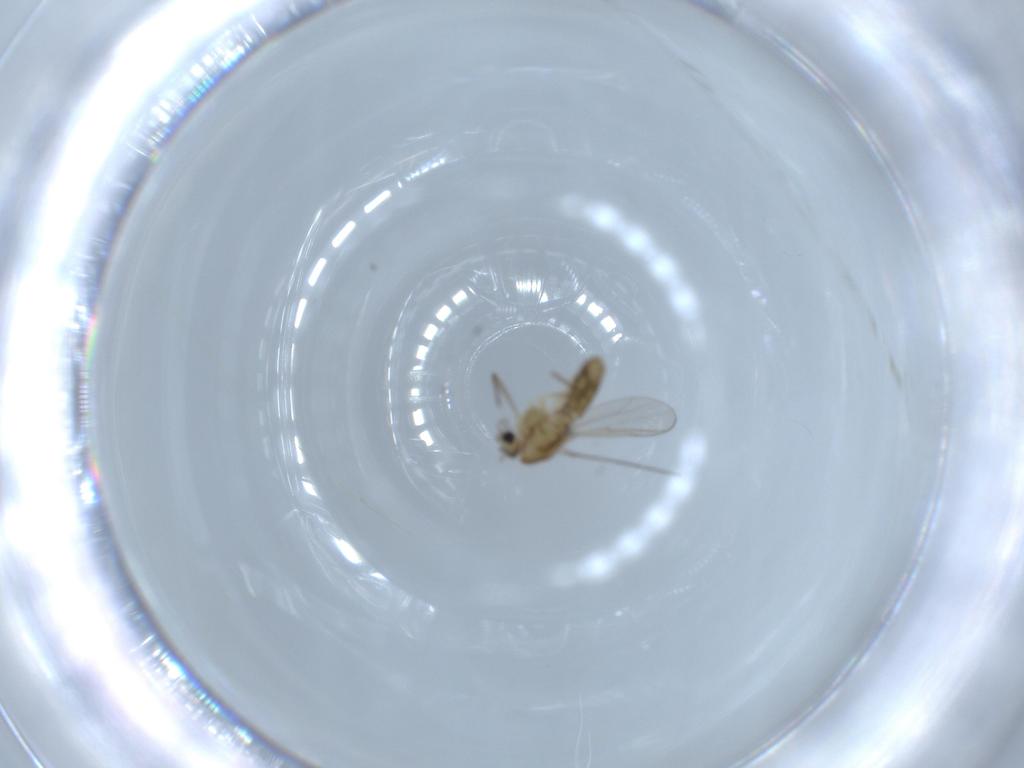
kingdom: Animalia
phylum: Arthropoda
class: Insecta
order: Diptera
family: Chironomidae
